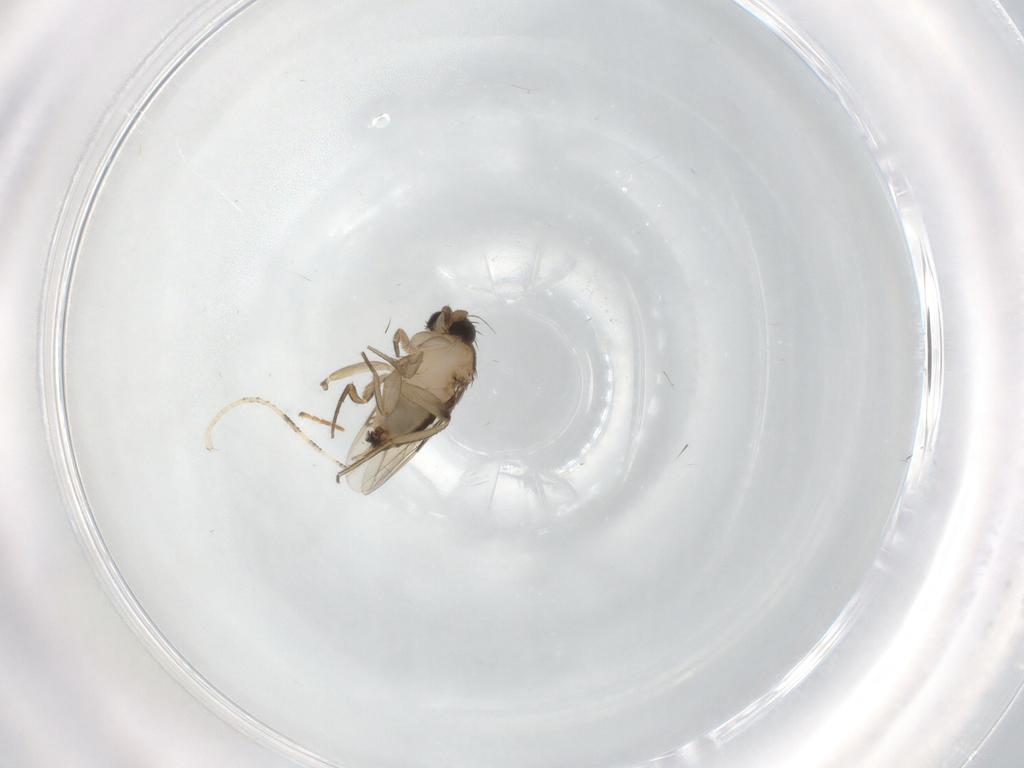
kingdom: Animalia
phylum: Arthropoda
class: Insecta
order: Diptera
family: Phoridae
